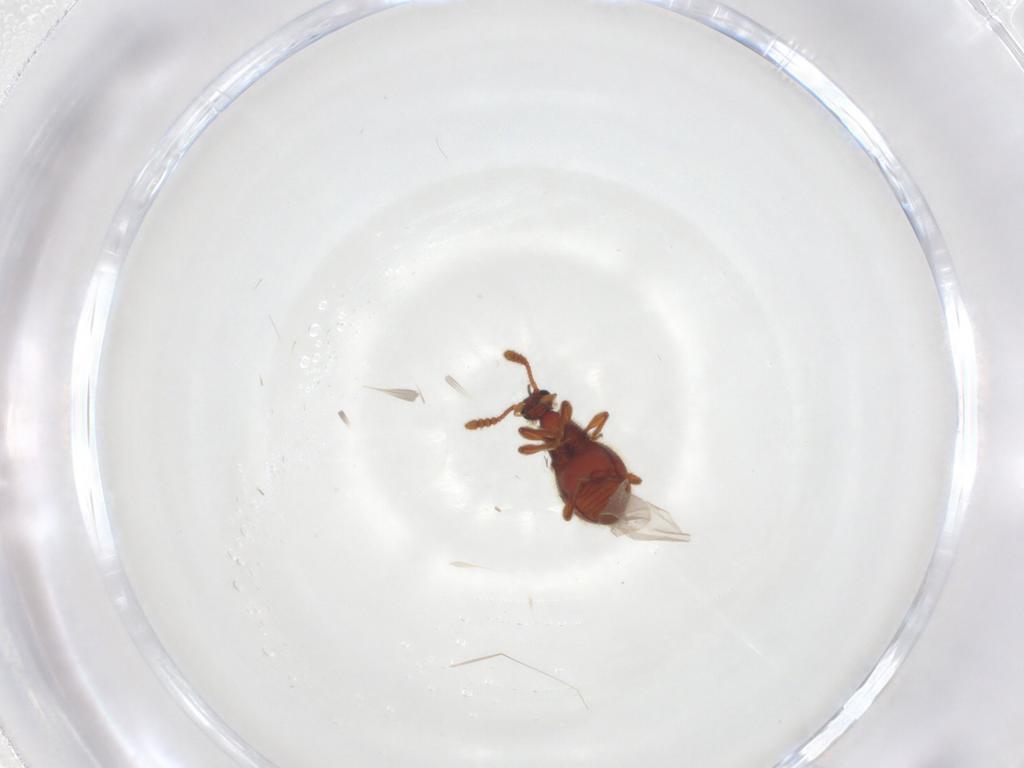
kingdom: Animalia
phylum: Arthropoda
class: Insecta
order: Coleoptera
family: Staphylinidae
